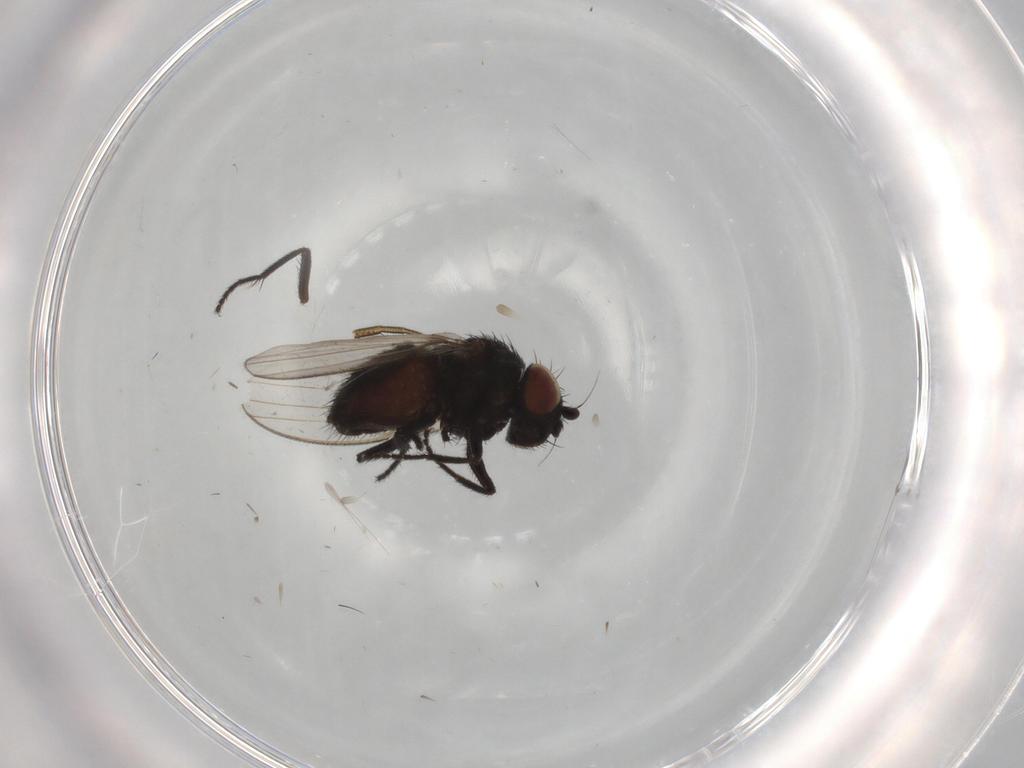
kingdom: Animalia
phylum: Arthropoda
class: Insecta
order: Diptera
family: Milichiidae
